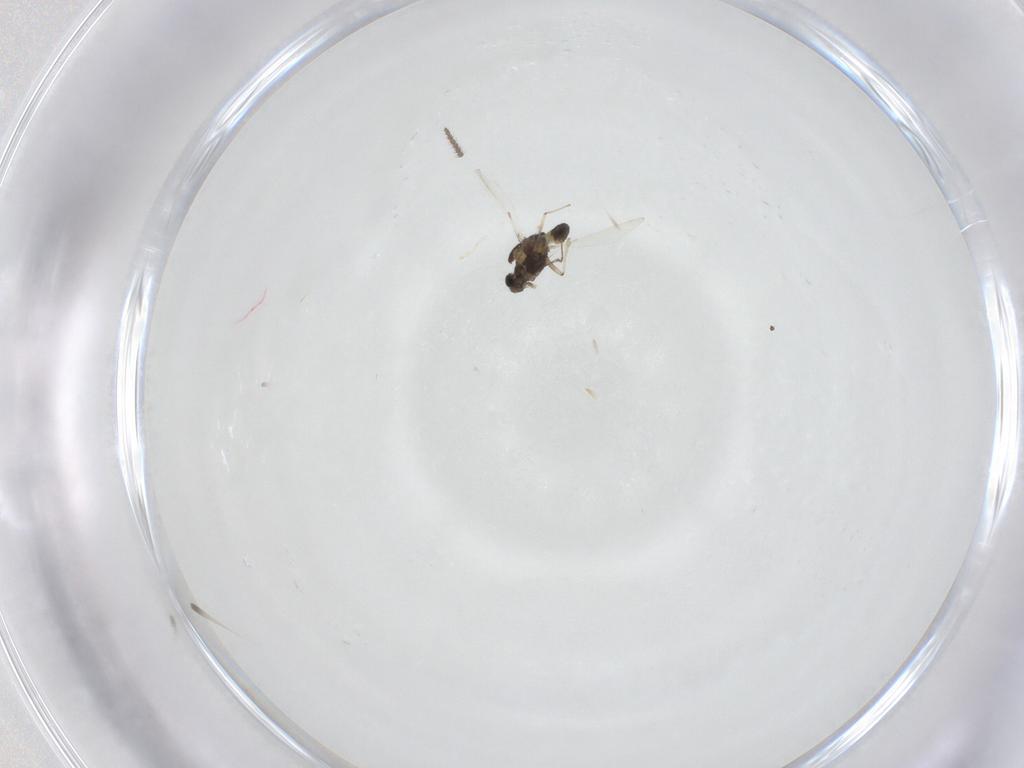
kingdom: Animalia
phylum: Arthropoda
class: Insecta
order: Diptera
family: Chironomidae
